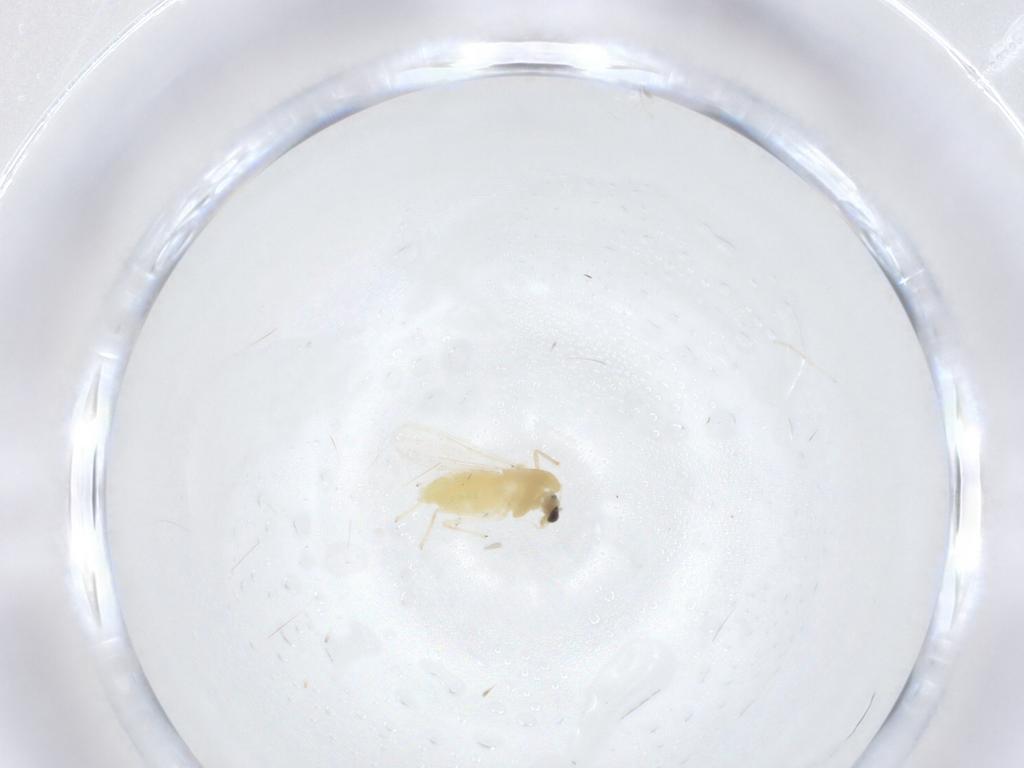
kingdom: Animalia
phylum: Arthropoda
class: Insecta
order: Diptera
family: Chironomidae
